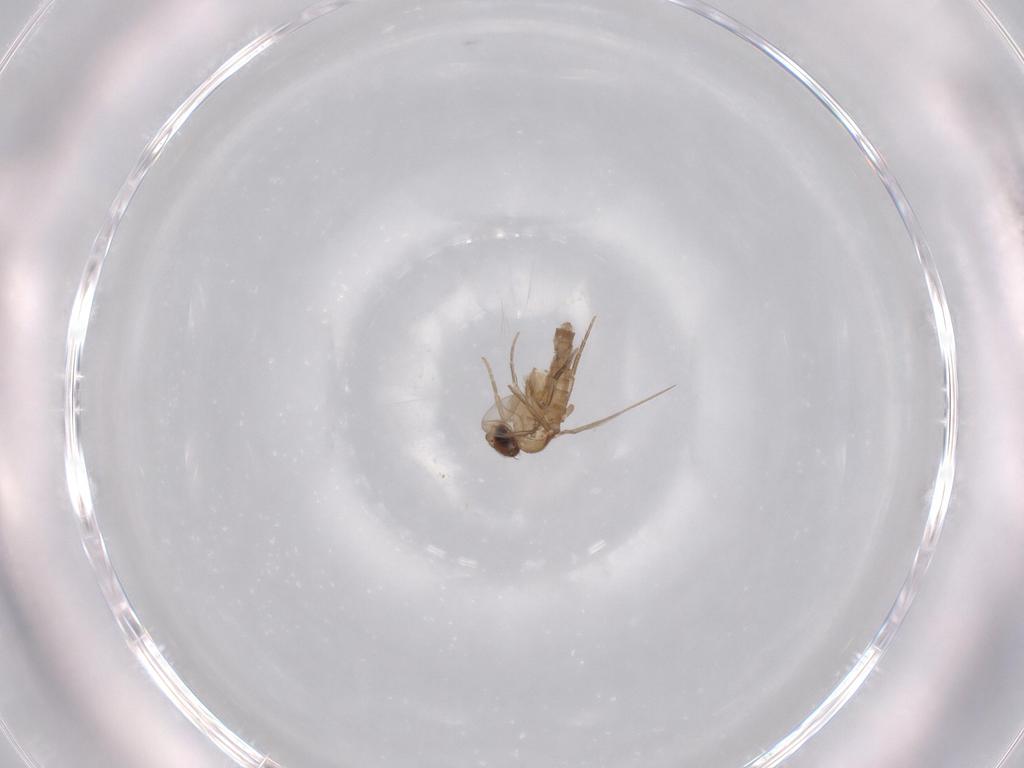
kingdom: Animalia
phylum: Arthropoda
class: Insecta
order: Diptera
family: Phoridae
